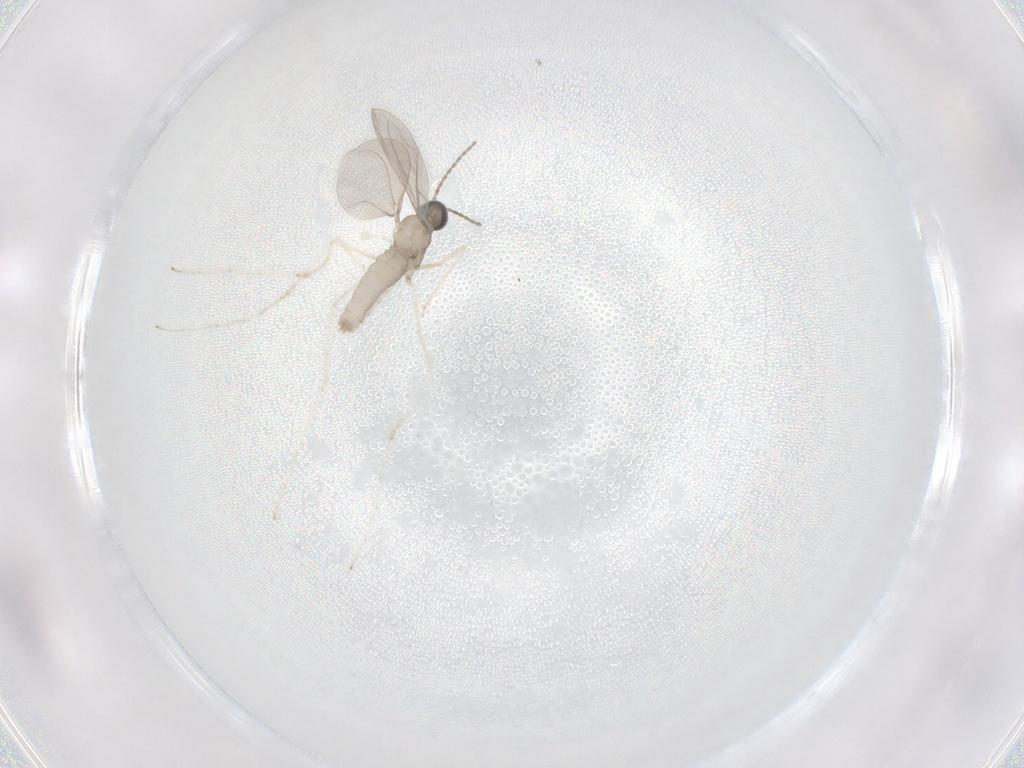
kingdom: Animalia
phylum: Arthropoda
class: Insecta
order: Diptera
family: Cecidomyiidae
